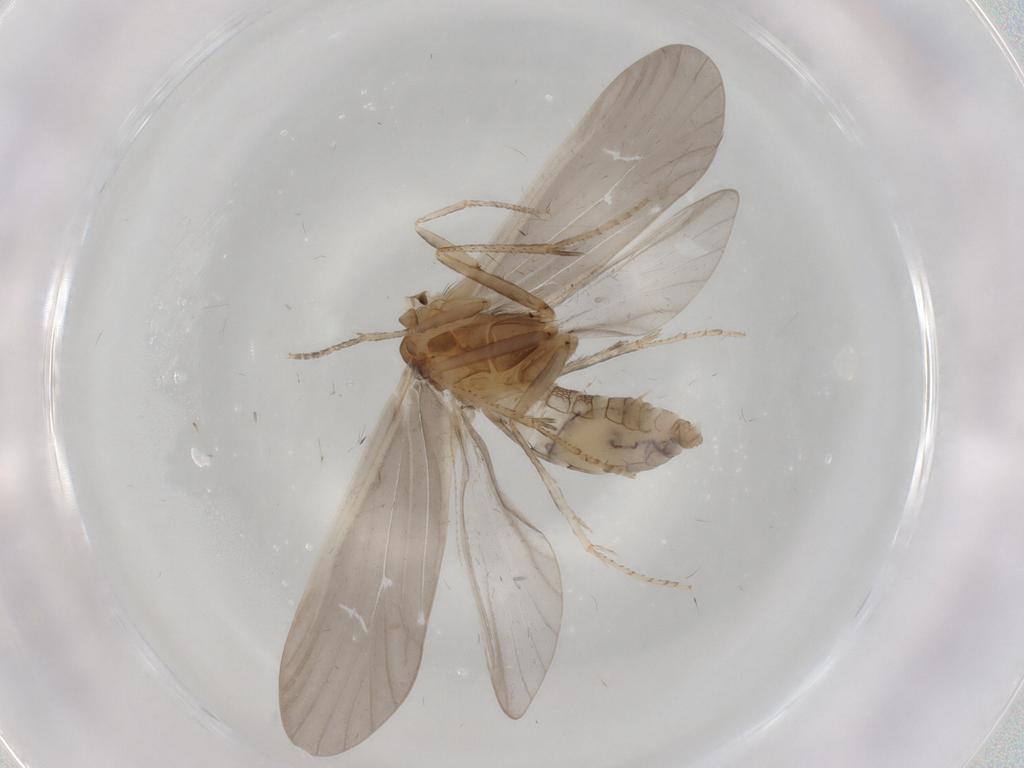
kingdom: Animalia
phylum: Arthropoda
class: Insecta
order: Trichoptera
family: Helicopsychidae
